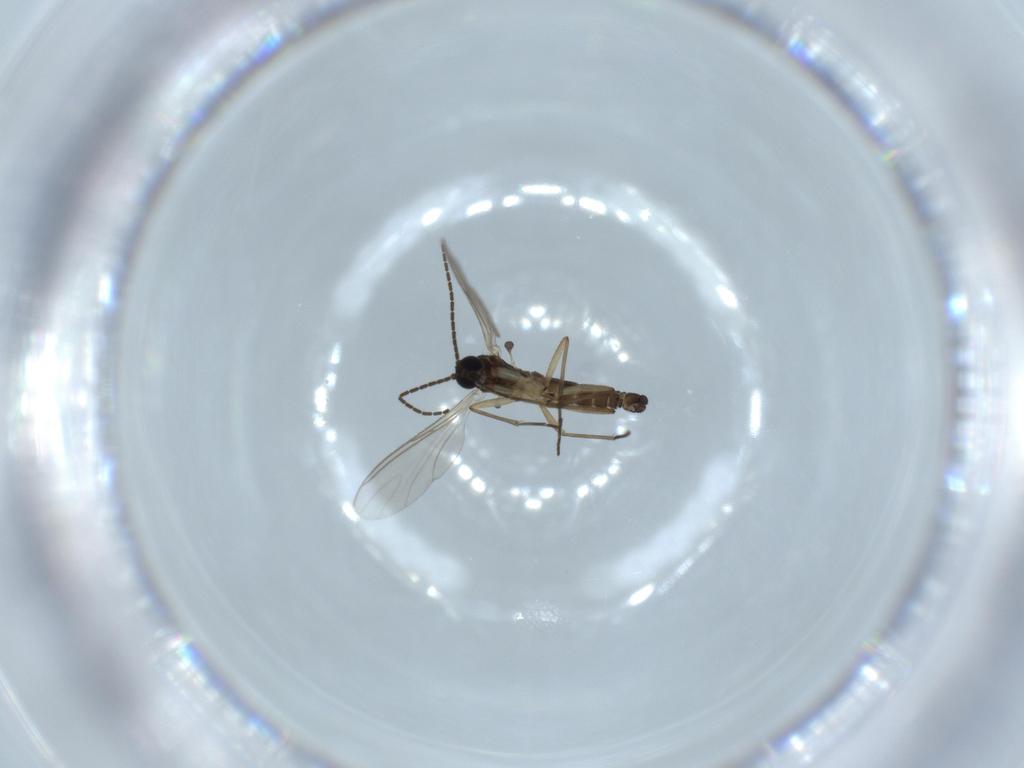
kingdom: Animalia
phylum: Arthropoda
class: Insecta
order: Diptera
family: Sciaridae
